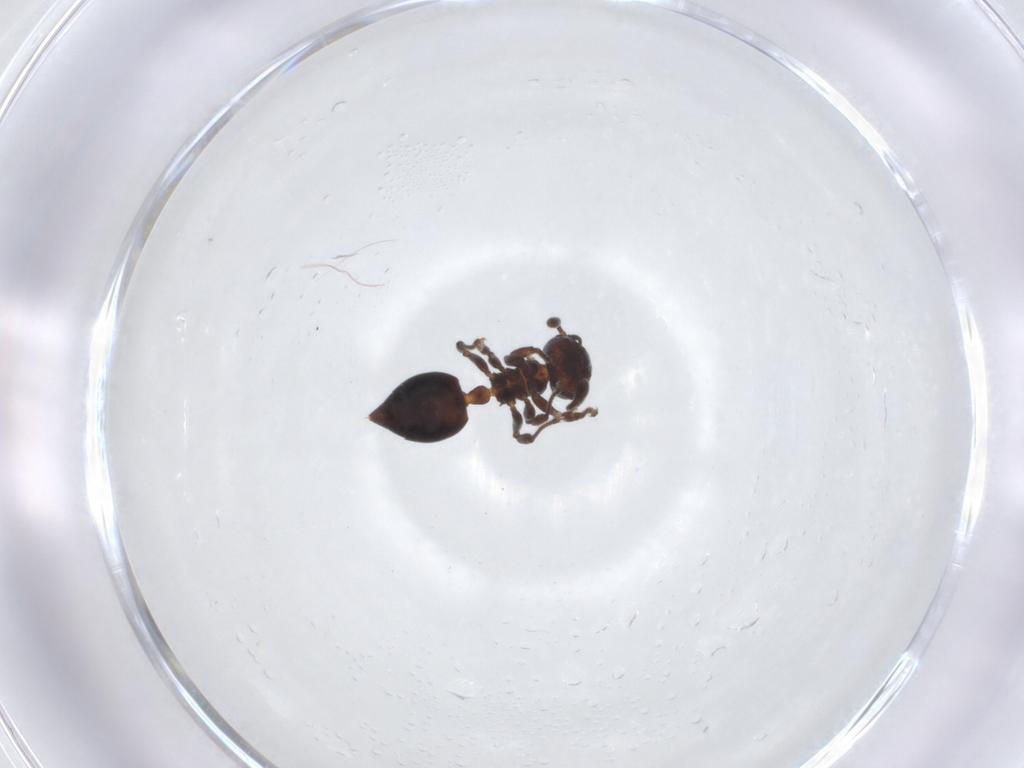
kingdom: Animalia
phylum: Arthropoda
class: Insecta
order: Hymenoptera
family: Formicidae
